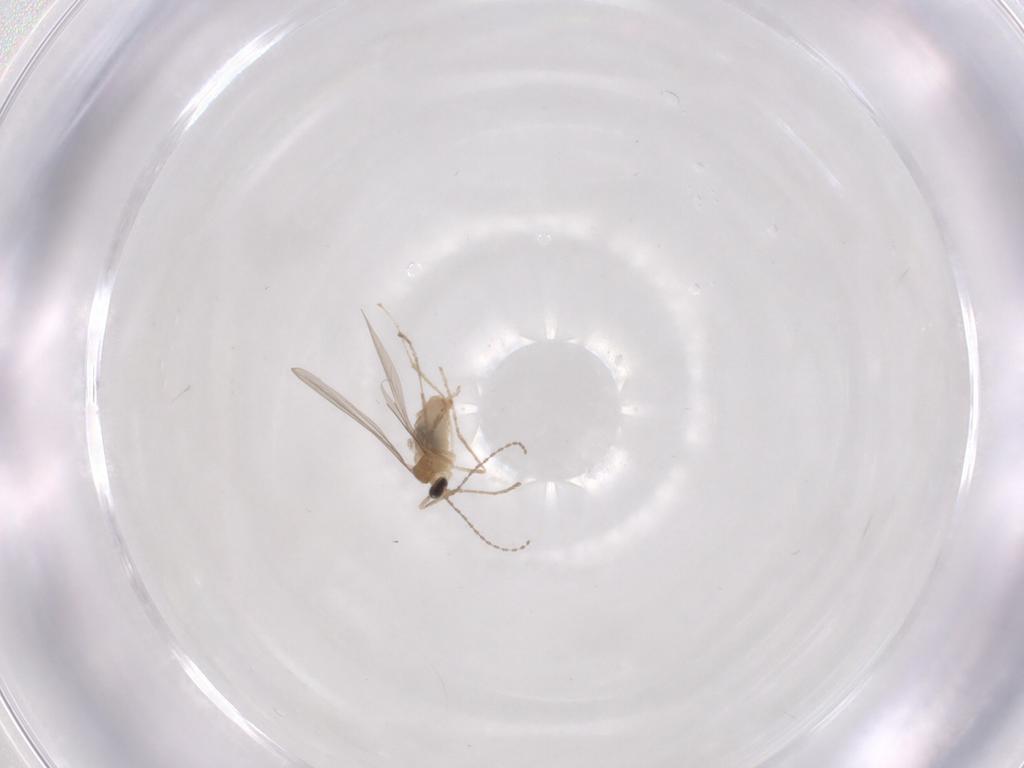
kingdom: Animalia
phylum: Arthropoda
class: Insecta
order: Diptera
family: Cecidomyiidae
